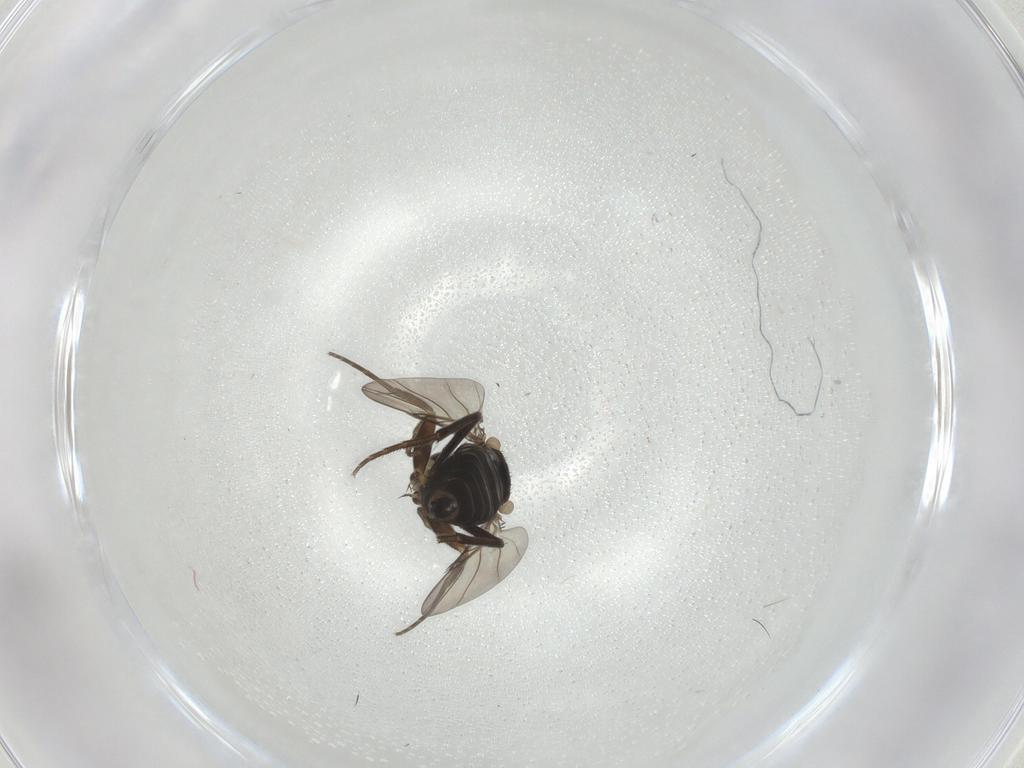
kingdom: Animalia
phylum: Arthropoda
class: Insecta
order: Diptera
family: Phoridae
